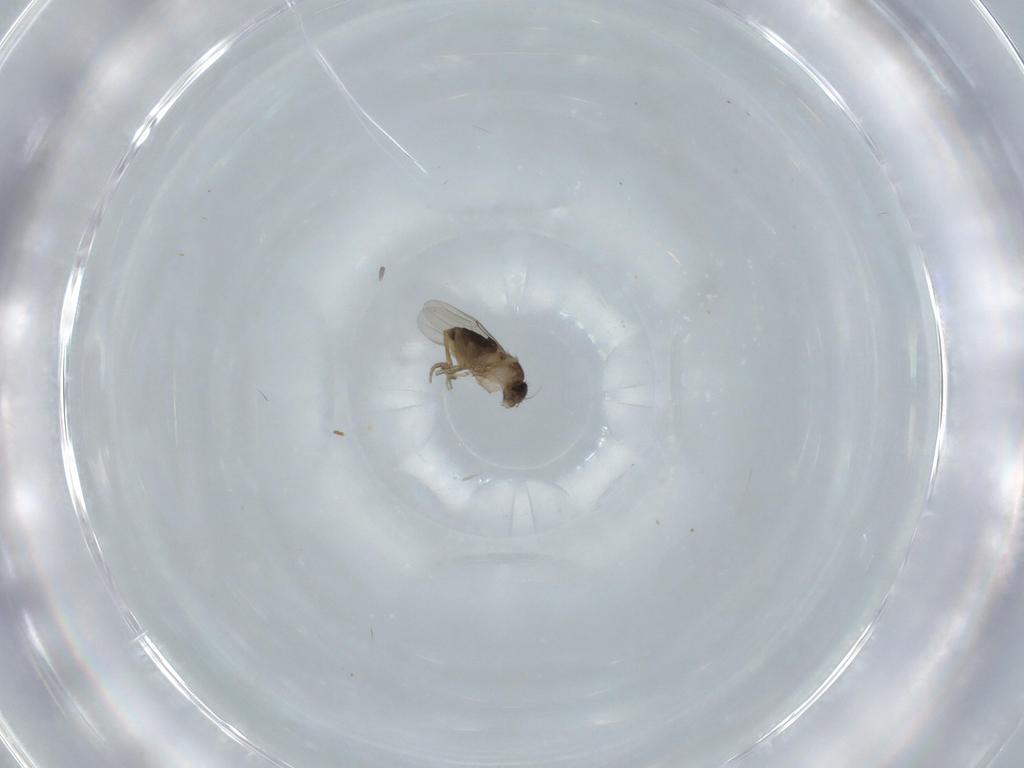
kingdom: Animalia
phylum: Arthropoda
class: Insecta
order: Diptera
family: Phoridae
